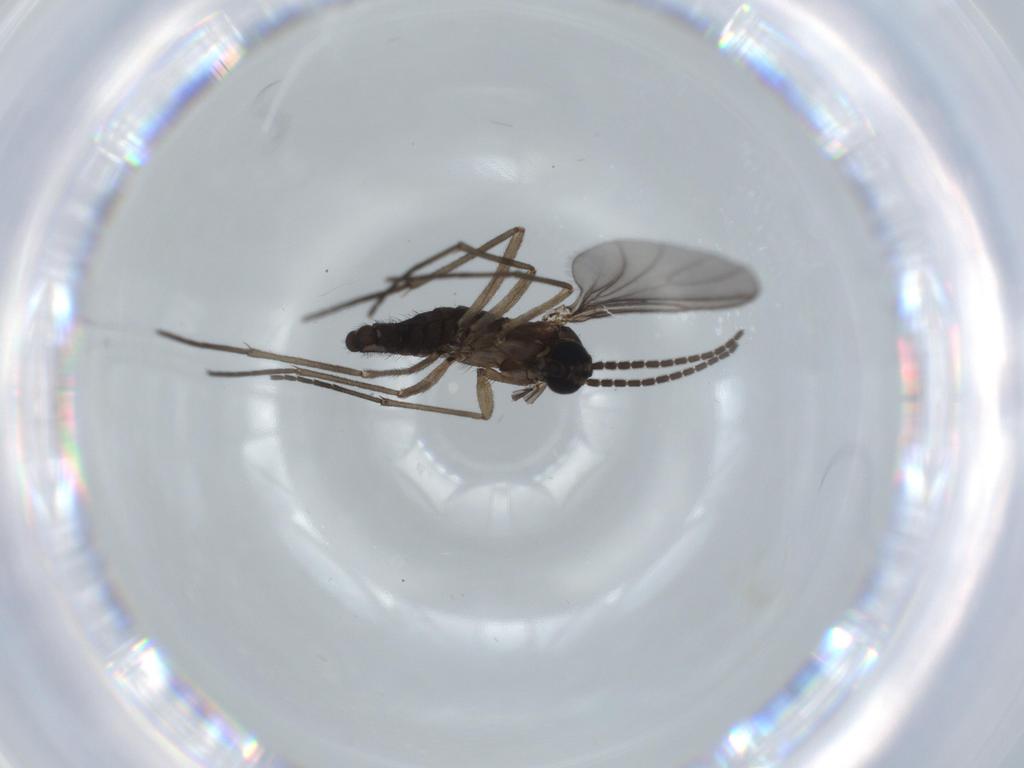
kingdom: Animalia
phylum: Arthropoda
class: Insecta
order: Diptera
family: Sciaridae
